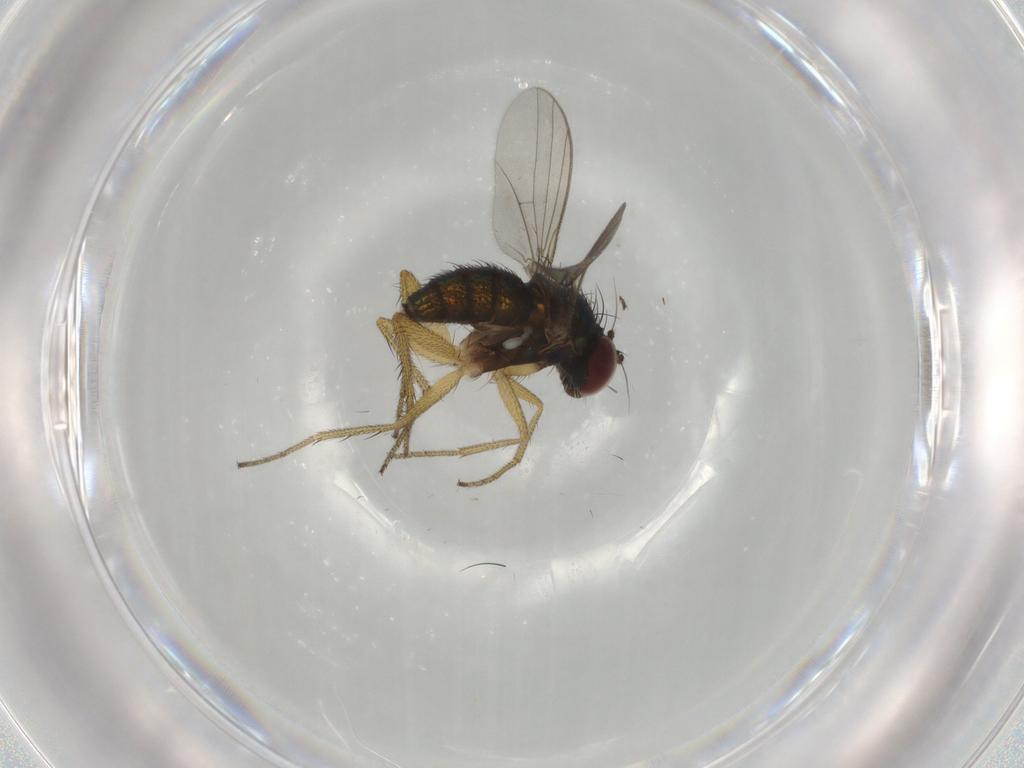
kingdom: Animalia
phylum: Arthropoda
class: Insecta
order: Diptera
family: Dolichopodidae
